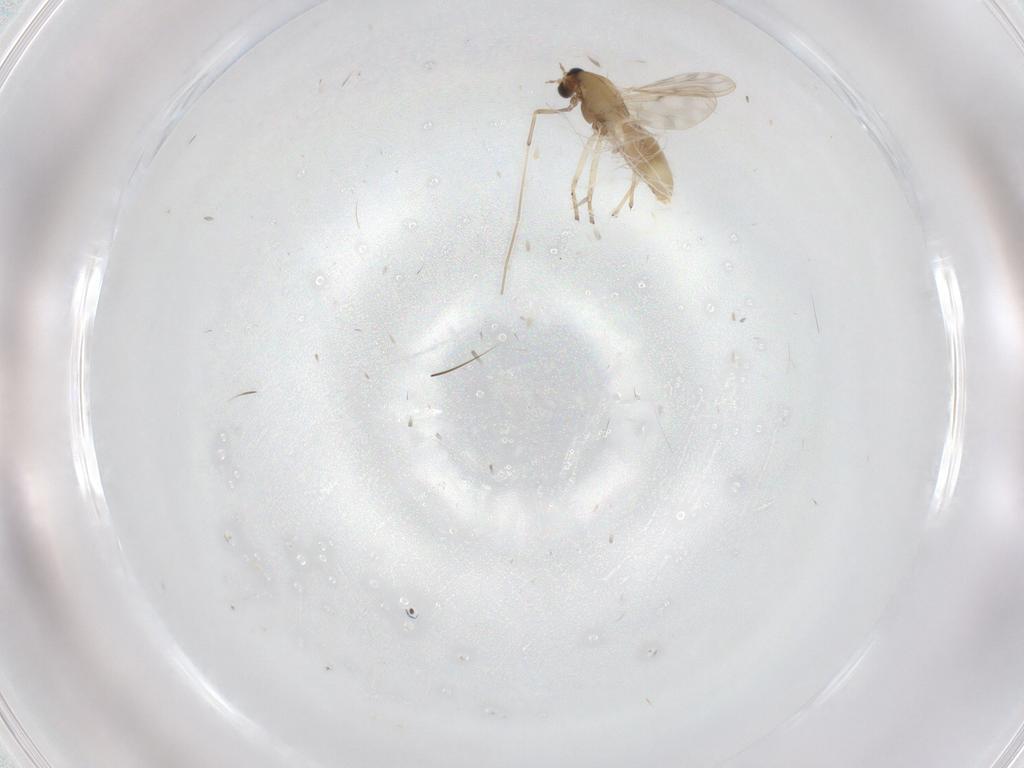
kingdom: Animalia
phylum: Arthropoda
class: Insecta
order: Diptera
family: Chironomidae
